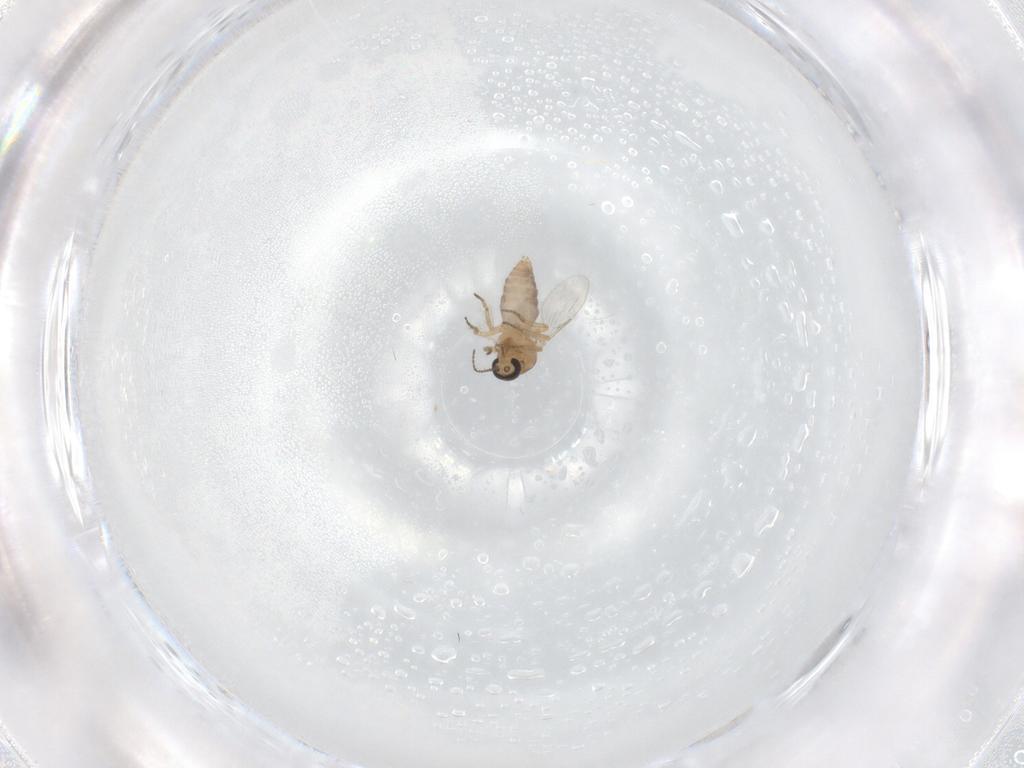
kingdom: Animalia
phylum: Arthropoda
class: Insecta
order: Diptera
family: Ceratopogonidae
